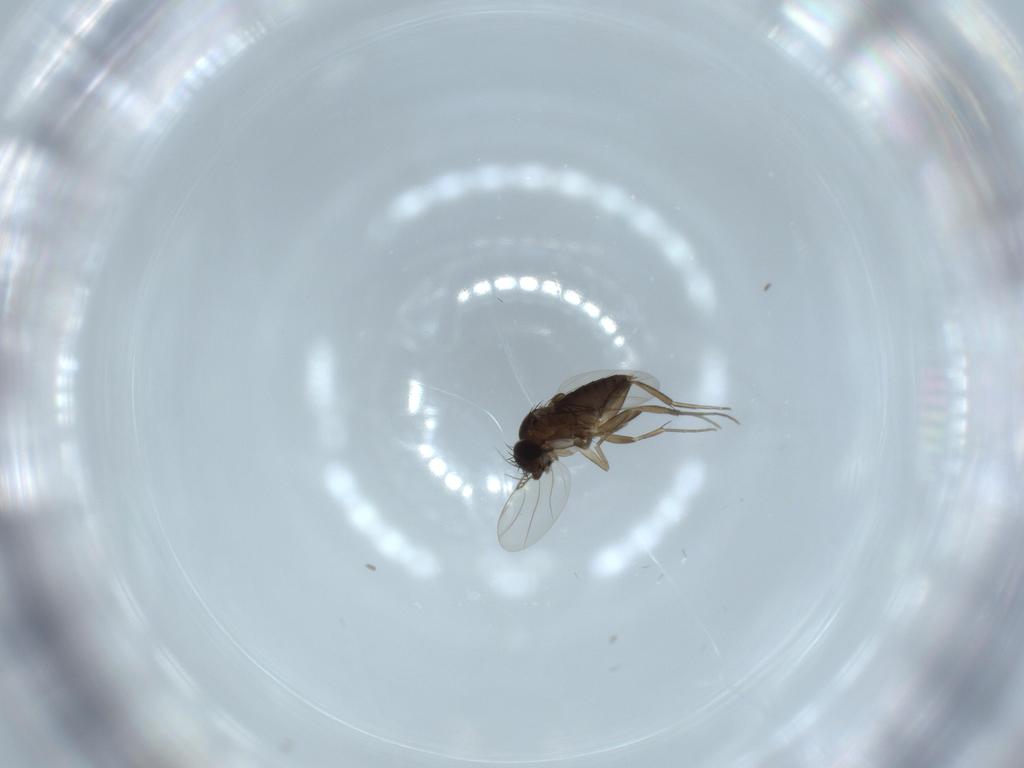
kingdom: Animalia
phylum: Arthropoda
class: Insecta
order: Diptera
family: Phoridae
